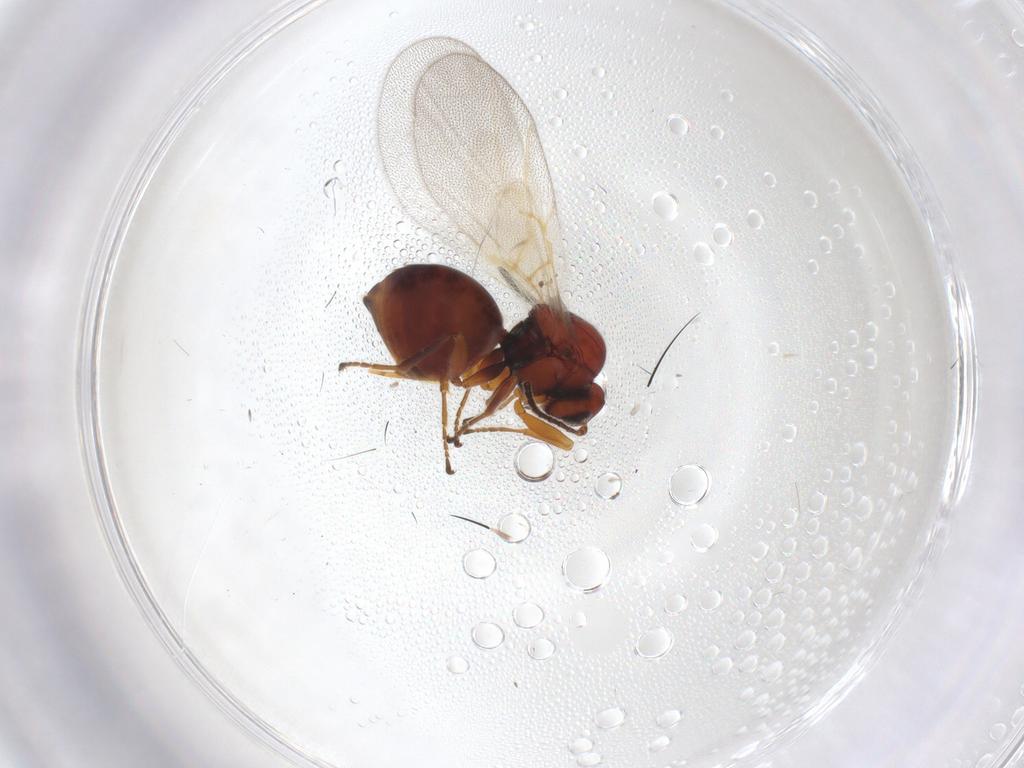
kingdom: Animalia
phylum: Arthropoda
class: Insecta
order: Hymenoptera
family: Cynipidae
